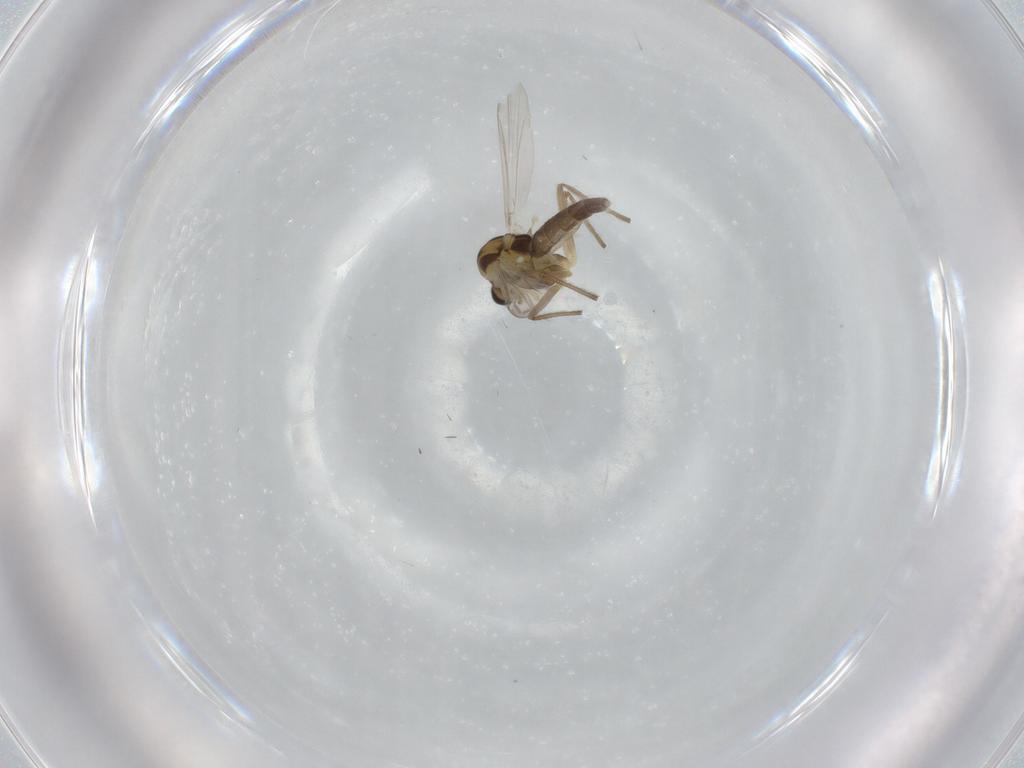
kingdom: Animalia
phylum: Arthropoda
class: Insecta
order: Diptera
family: Chironomidae
